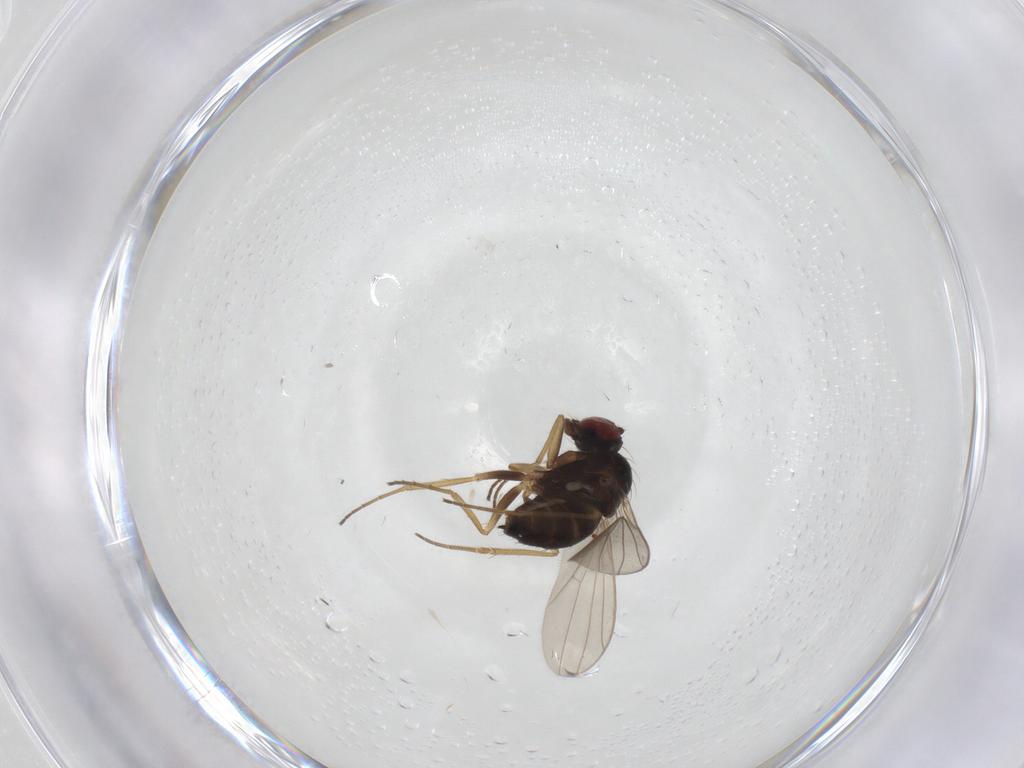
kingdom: Animalia
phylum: Arthropoda
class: Insecta
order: Diptera
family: Dolichopodidae
